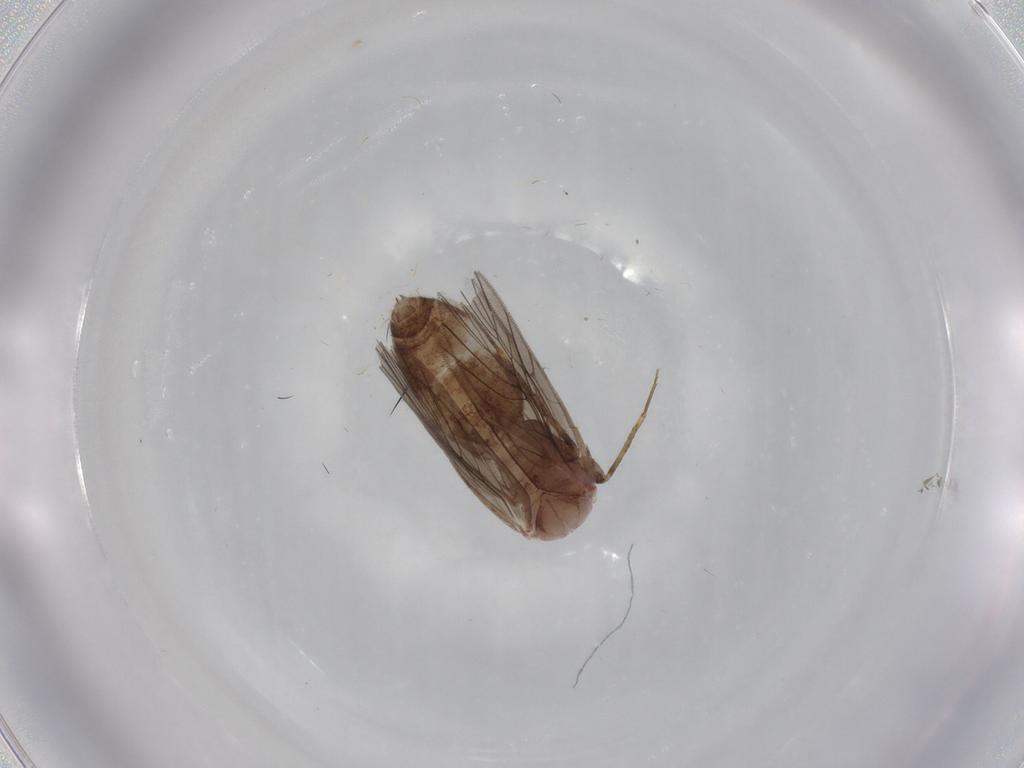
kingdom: Animalia
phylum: Arthropoda
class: Insecta
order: Psocodea
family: Lepidopsocidae
